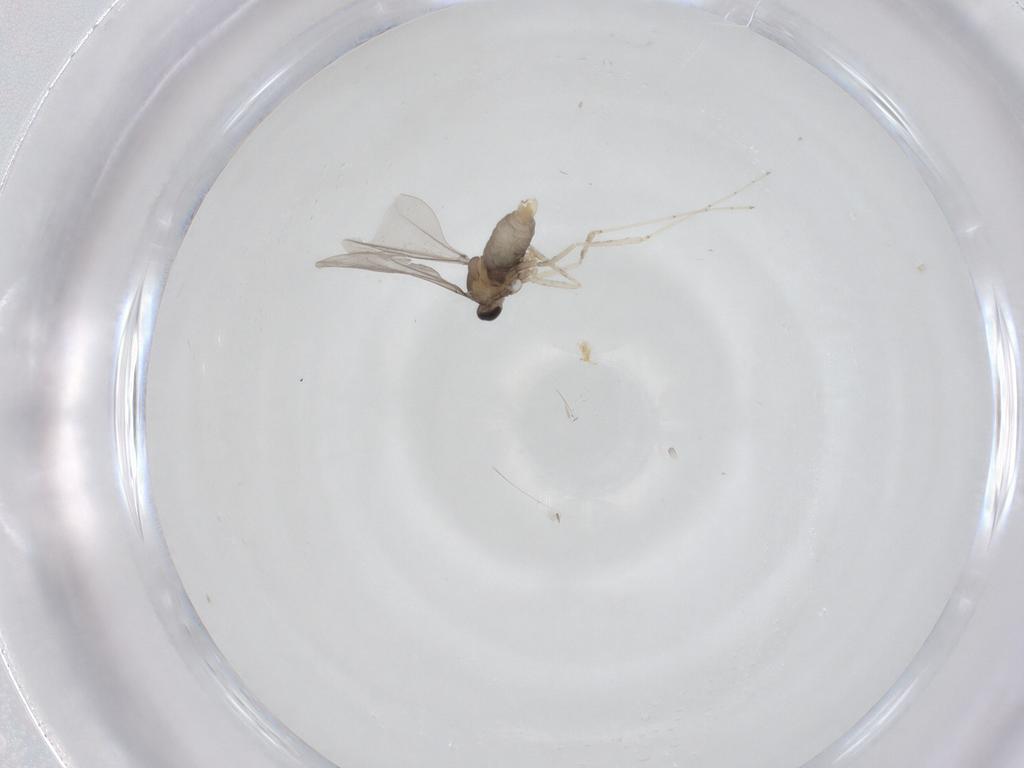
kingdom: Animalia
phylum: Arthropoda
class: Insecta
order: Diptera
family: Cecidomyiidae
